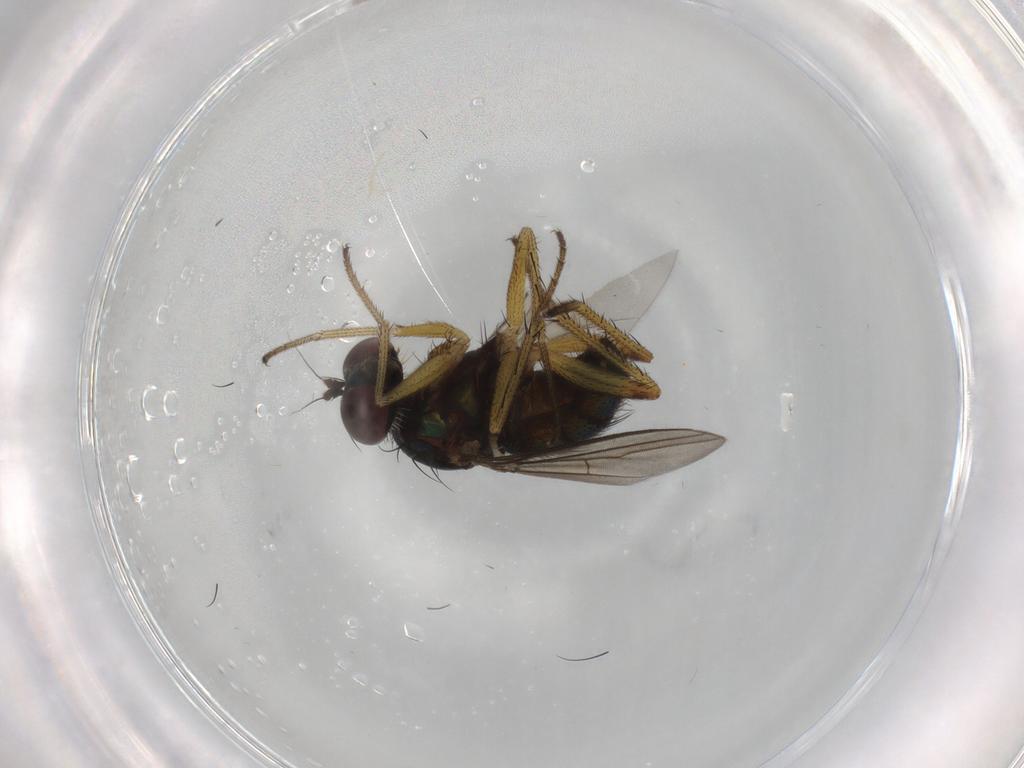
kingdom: Animalia
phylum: Arthropoda
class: Insecta
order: Diptera
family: Dolichopodidae
